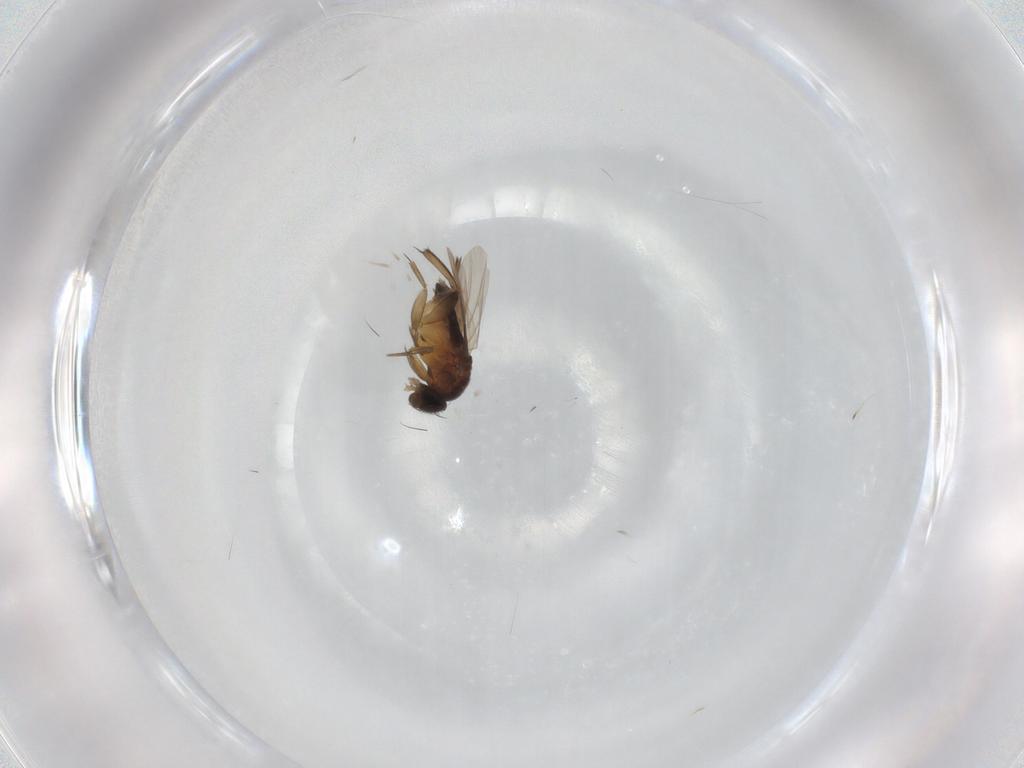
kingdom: Animalia
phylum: Arthropoda
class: Insecta
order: Diptera
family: Phoridae
